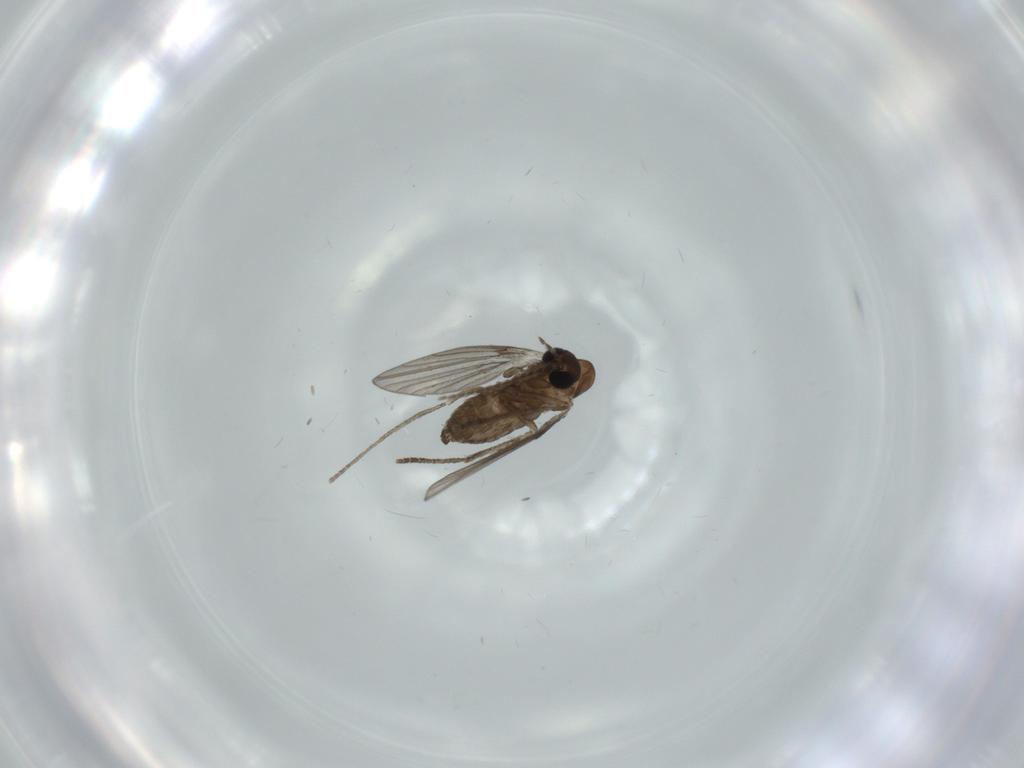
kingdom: Animalia
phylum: Arthropoda
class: Insecta
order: Diptera
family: Psychodidae
